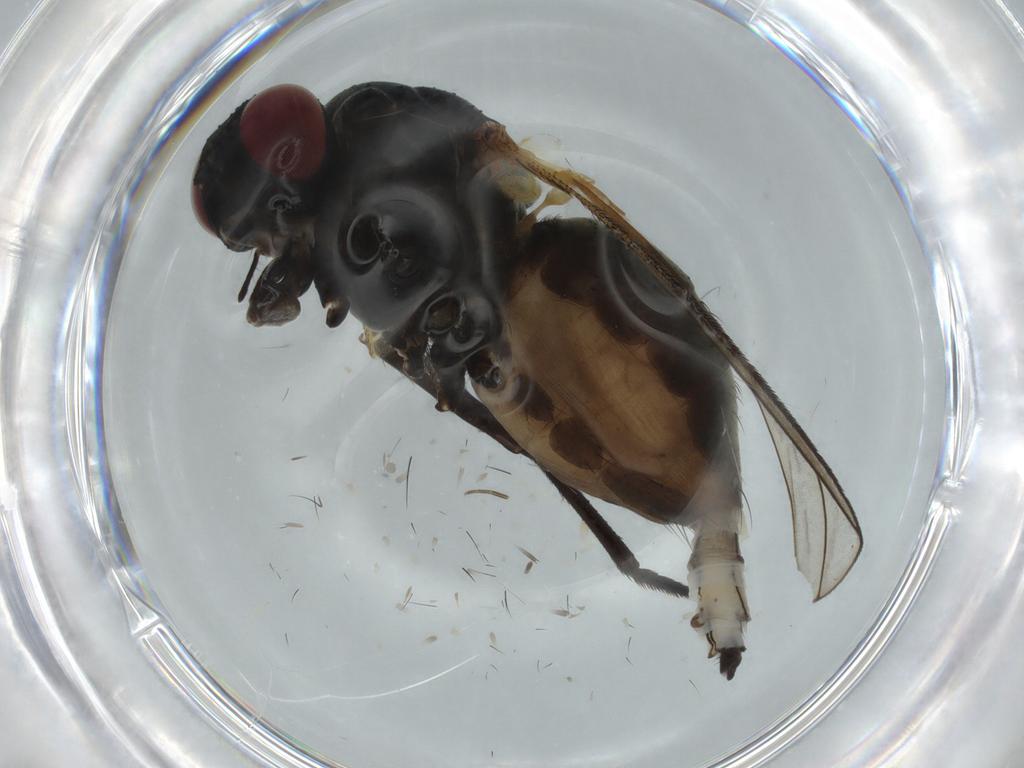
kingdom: Animalia
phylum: Arthropoda
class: Insecta
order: Diptera
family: Muscidae
